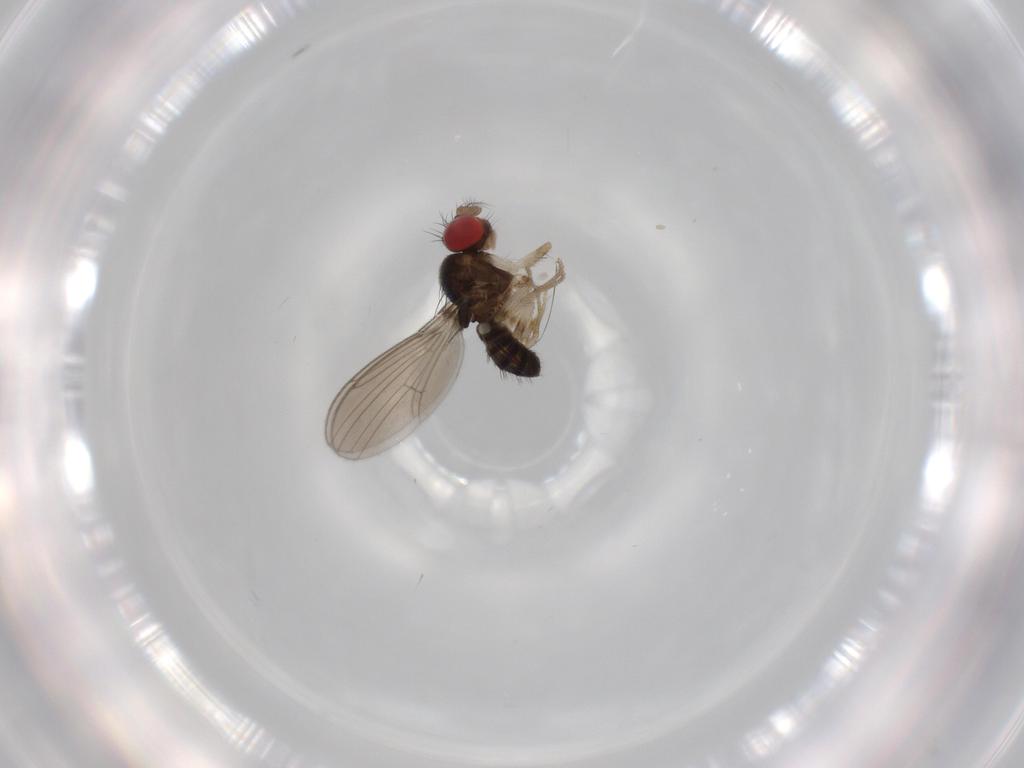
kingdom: Animalia
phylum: Arthropoda
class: Insecta
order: Diptera
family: Drosophilidae
